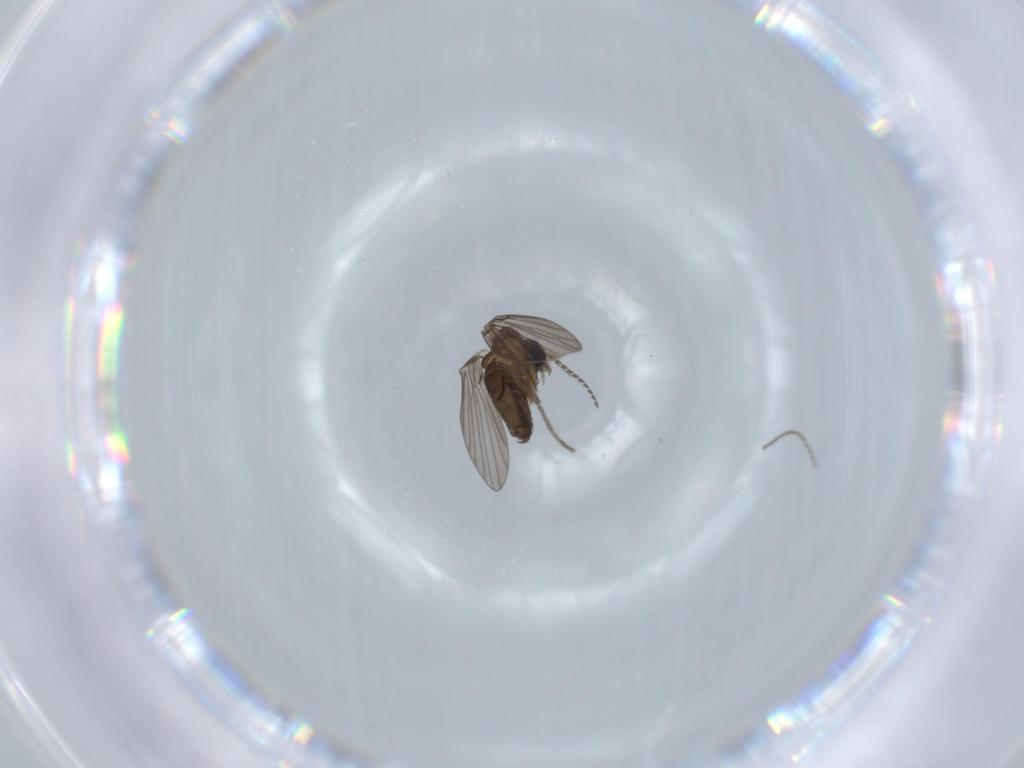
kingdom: Animalia
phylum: Arthropoda
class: Insecta
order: Diptera
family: Psychodidae
